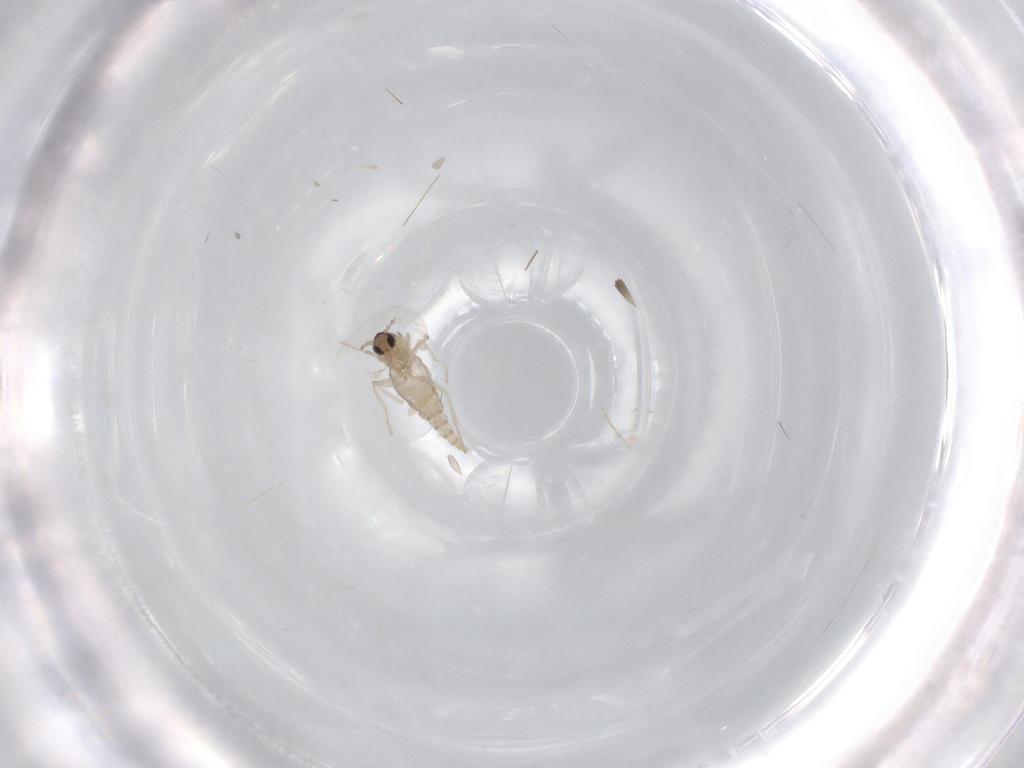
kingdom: Animalia
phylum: Arthropoda
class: Insecta
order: Diptera
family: Cecidomyiidae
